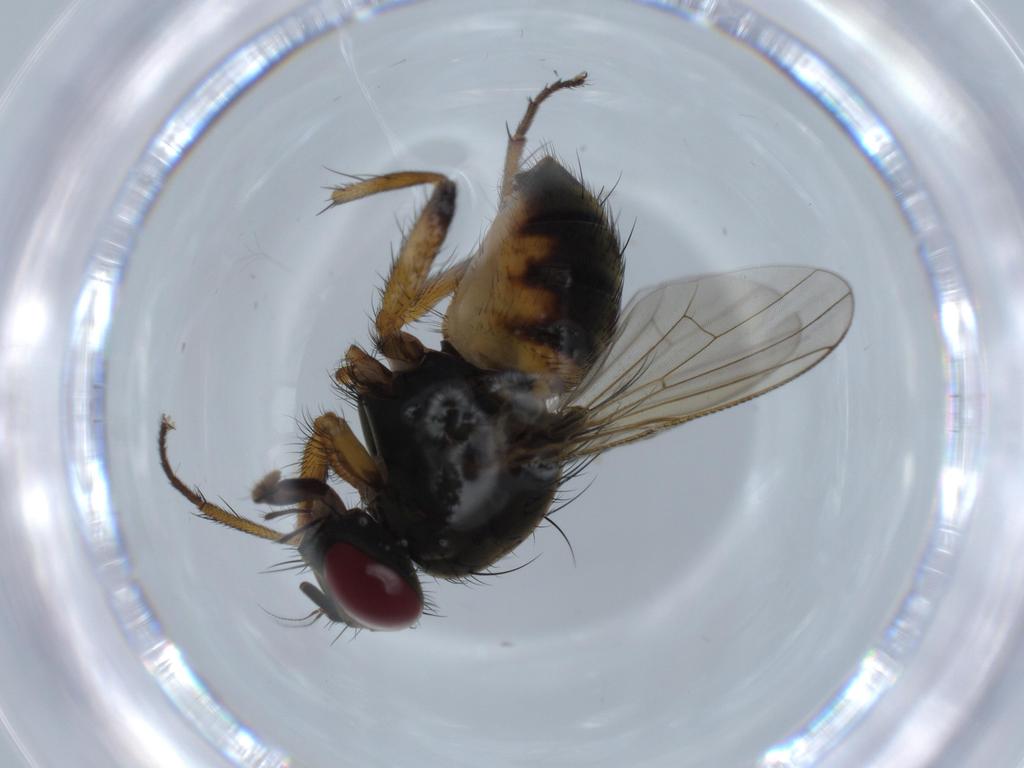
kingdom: Animalia
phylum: Arthropoda
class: Insecta
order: Diptera
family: Muscidae
